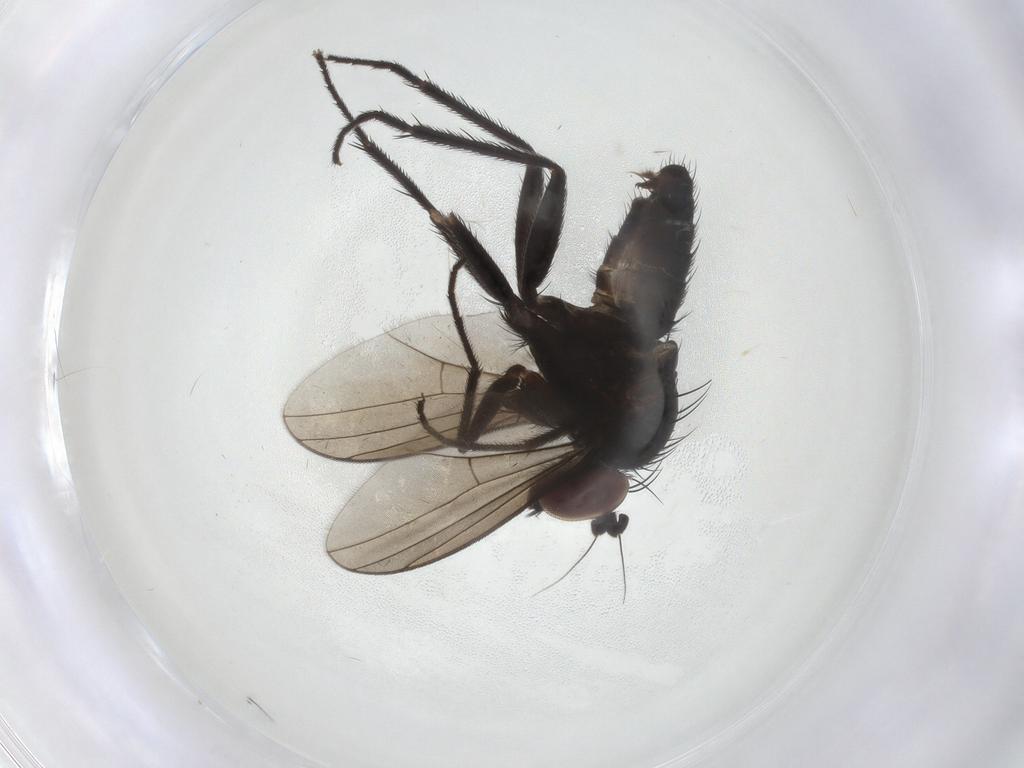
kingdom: Animalia
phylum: Arthropoda
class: Insecta
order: Diptera
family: Dolichopodidae
